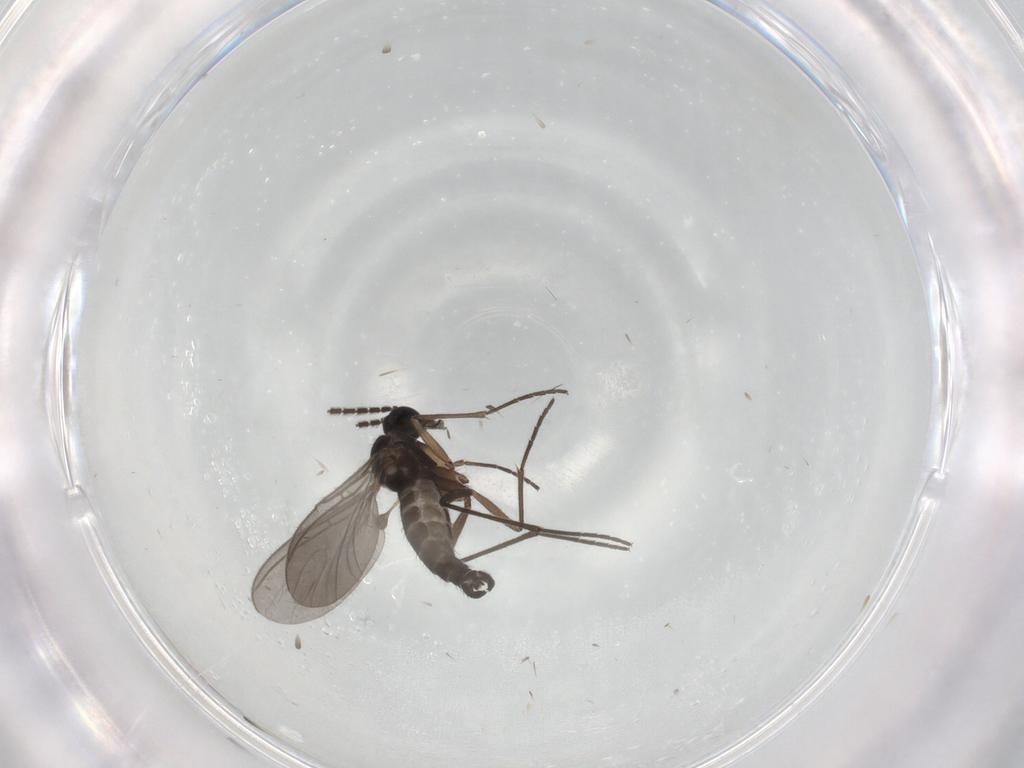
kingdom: Animalia
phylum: Arthropoda
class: Insecta
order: Diptera
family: Sciaridae
